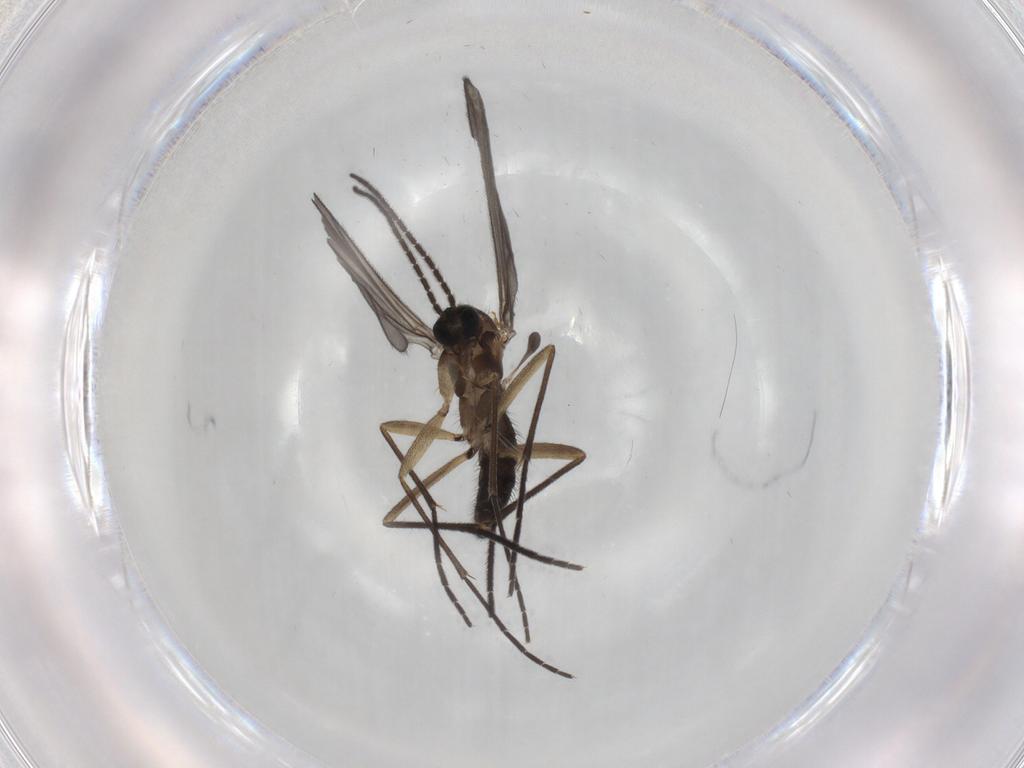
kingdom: Animalia
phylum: Arthropoda
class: Insecta
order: Diptera
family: Sciaridae
